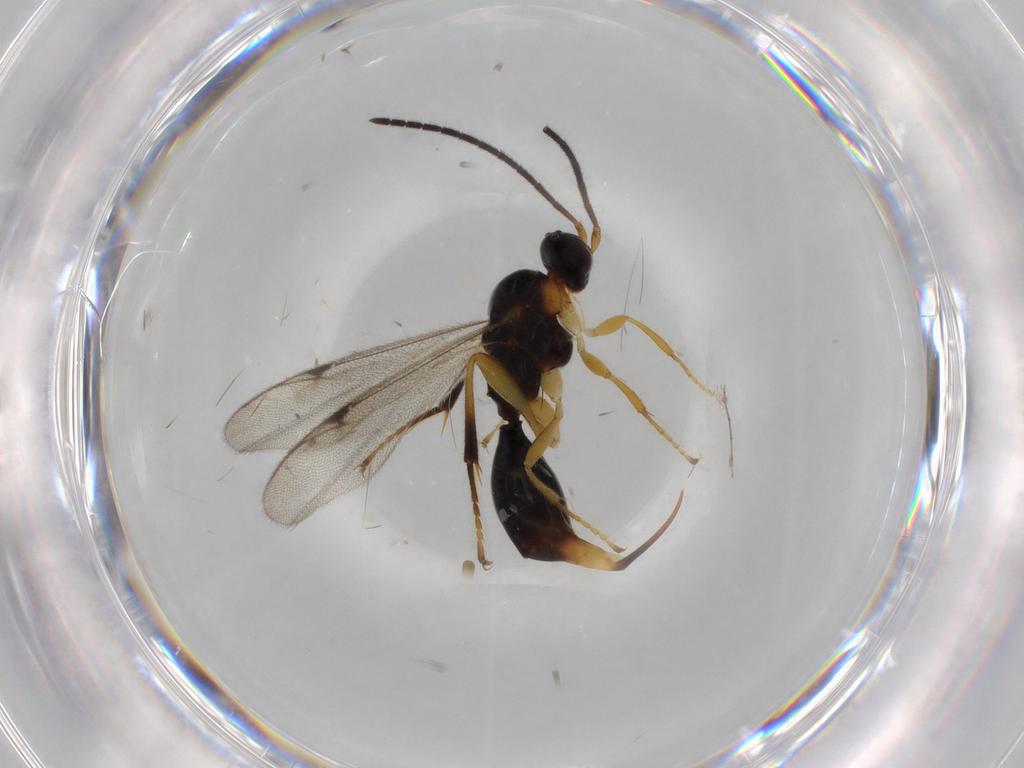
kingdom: Animalia
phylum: Arthropoda
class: Insecta
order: Hymenoptera
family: Proctotrupidae
